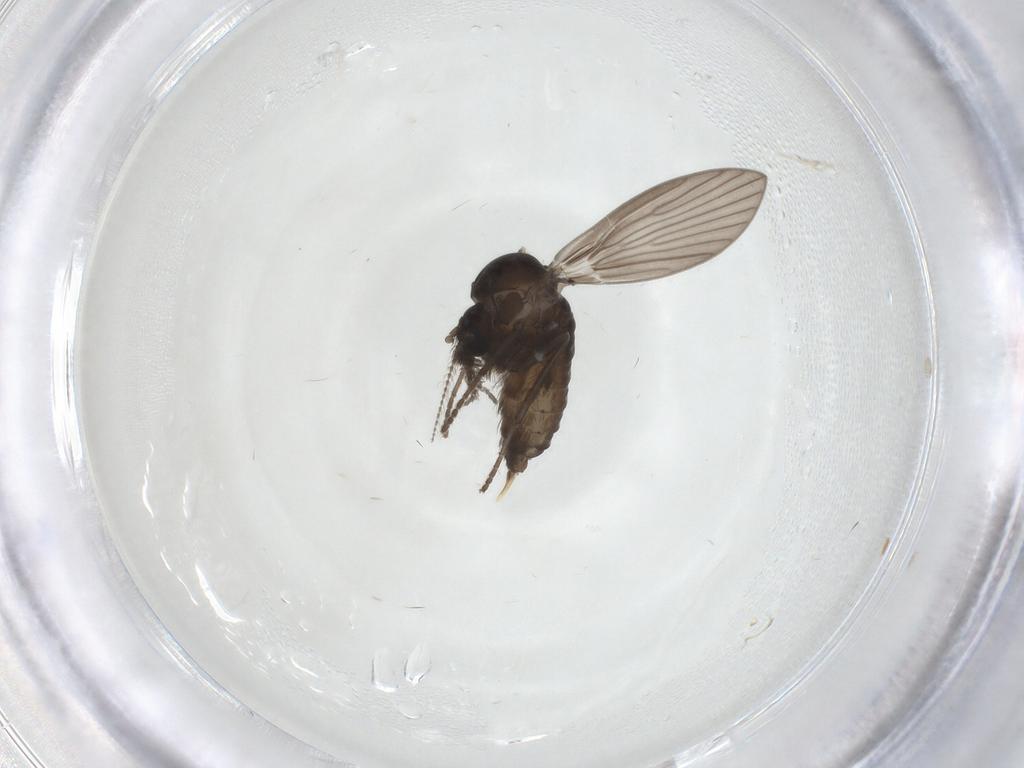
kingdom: Animalia
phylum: Arthropoda
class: Insecta
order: Diptera
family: Psychodidae
